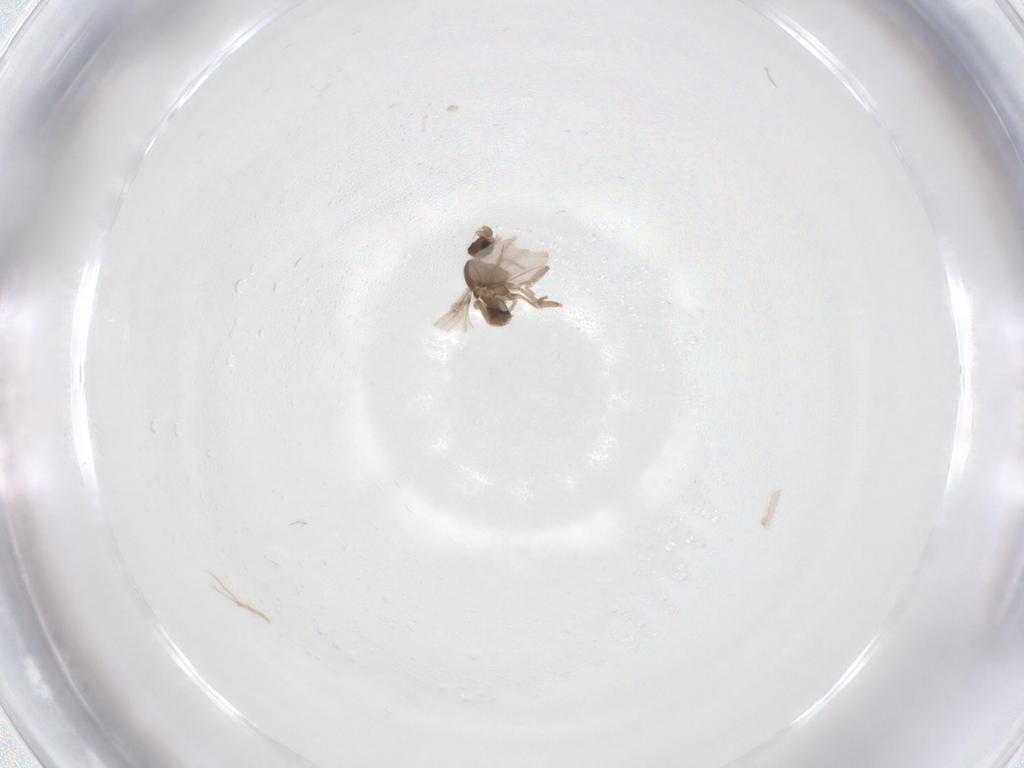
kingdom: Animalia
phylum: Arthropoda
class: Insecta
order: Diptera
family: Phoridae
